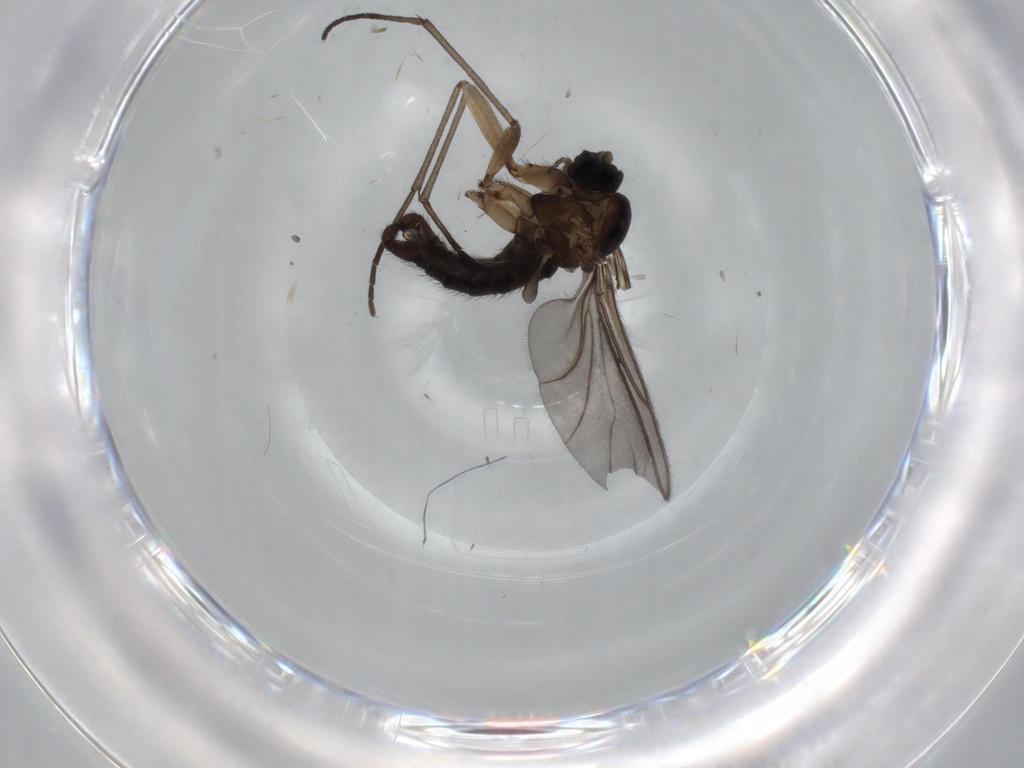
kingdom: Animalia
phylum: Arthropoda
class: Insecta
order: Diptera
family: Sciaridae
